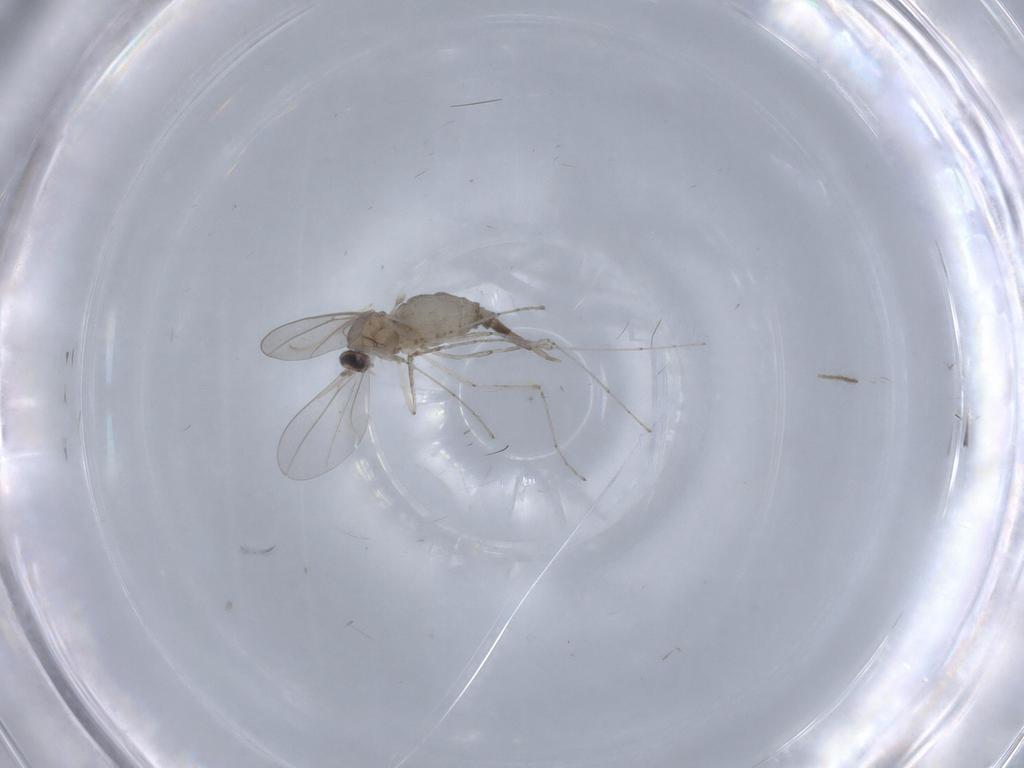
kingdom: Animalia
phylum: Arthropoda
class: Insecta
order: Diptera
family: Cecidomyiidae
